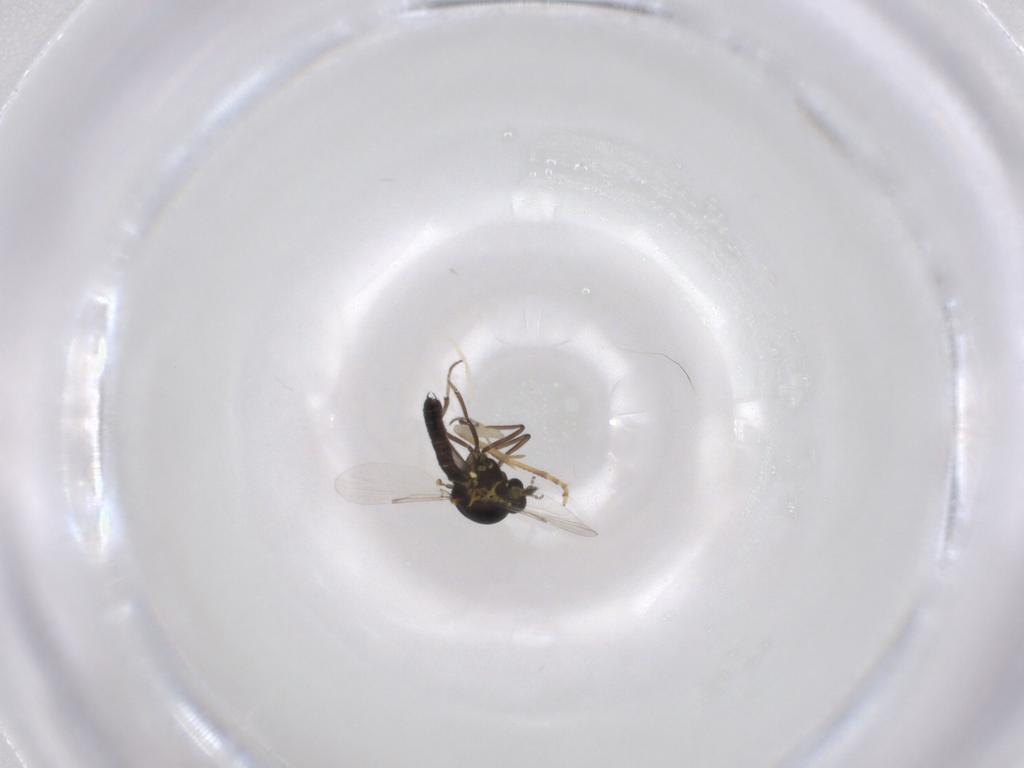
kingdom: Animalia
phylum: Arthropoda
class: Insecta
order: Diptera
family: Ceratopogonidae
